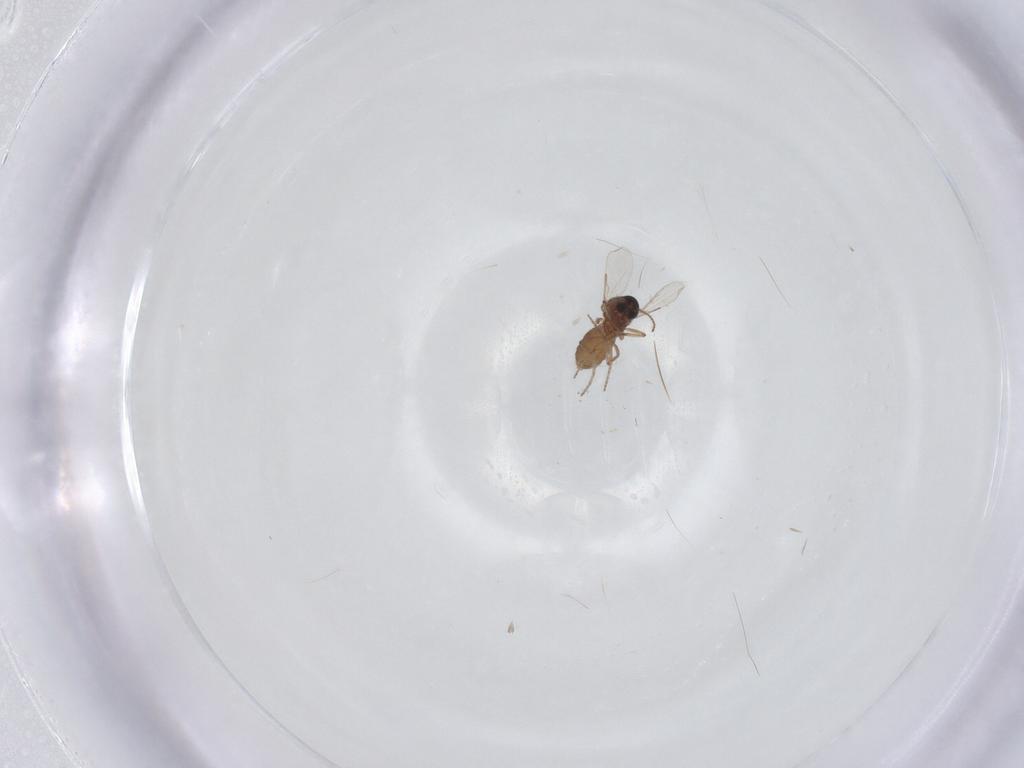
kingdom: Animalia
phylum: Arthropoda
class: Insecta
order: Diptera
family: Ceratopogonidae
